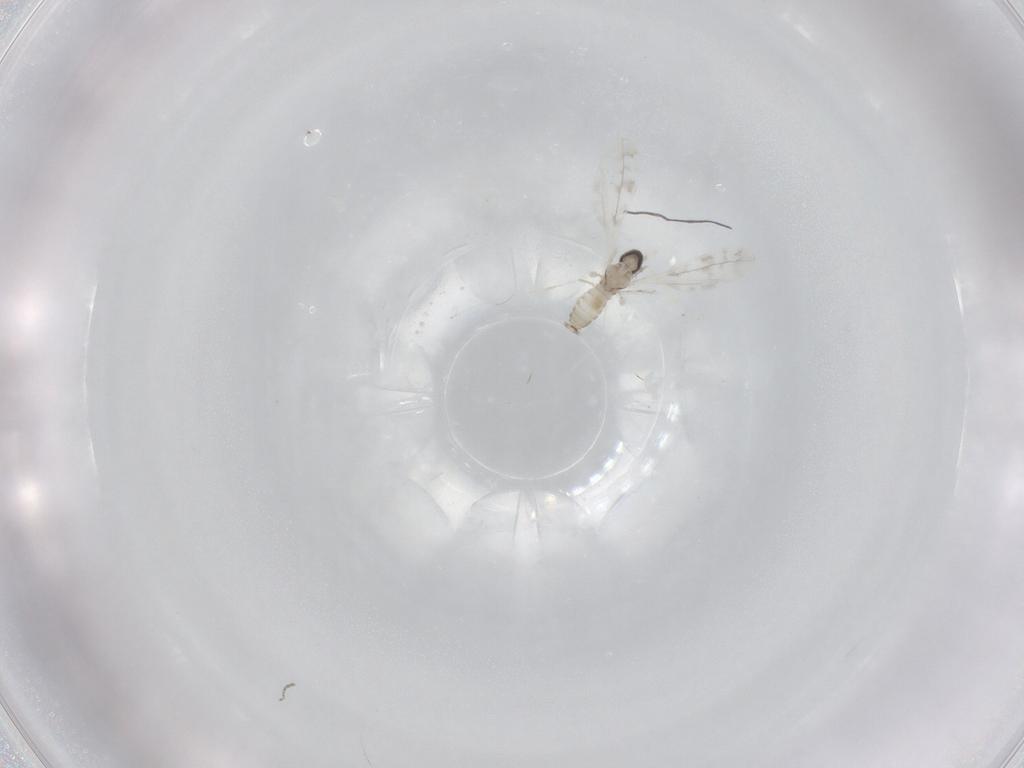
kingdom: Animalia
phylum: Arthropoda
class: Insecta
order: Diptera
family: Cecidomyiidae
